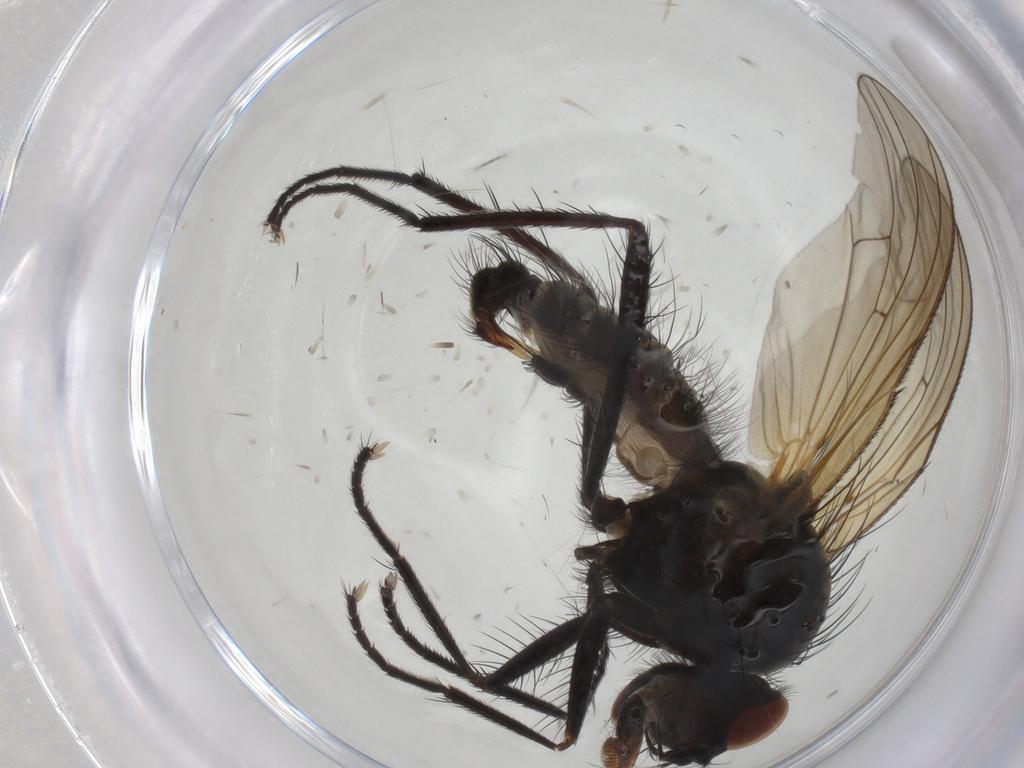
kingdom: Animalia
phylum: Arthropoda
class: Insecta
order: Diptera
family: Anthomyiidae
